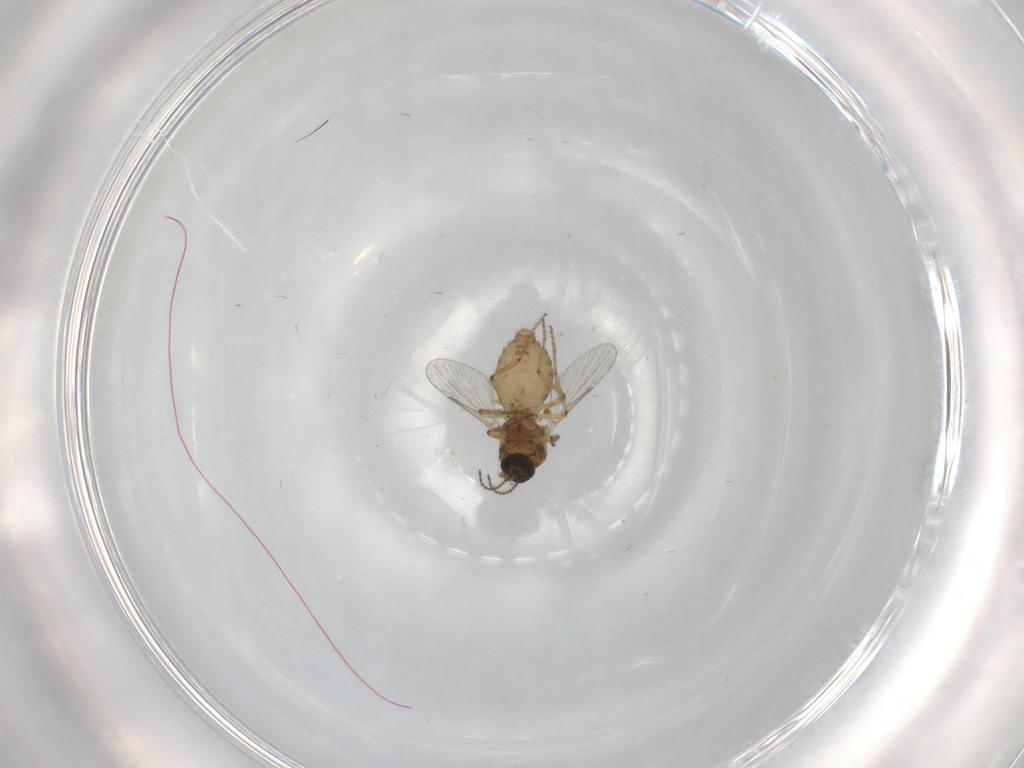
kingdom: Animalia
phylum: Arthropoda
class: Insecta
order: Diptera
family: Ceratopogonidae
